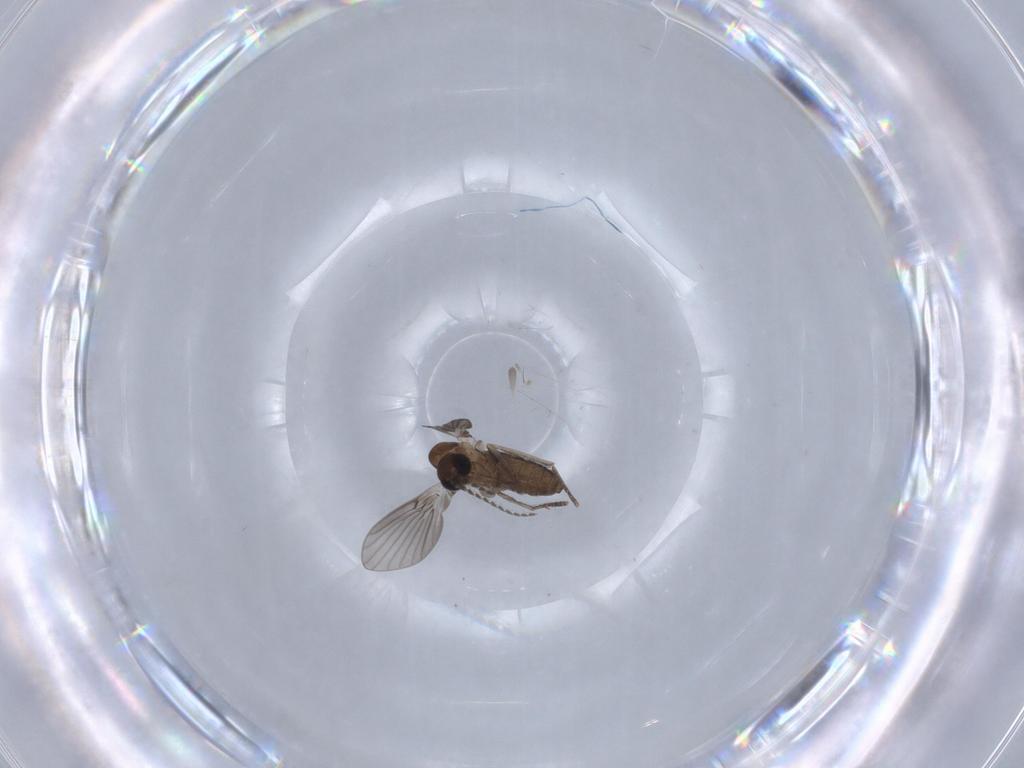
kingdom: Animalia
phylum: Arthropoda
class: Insecta
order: Diptera
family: Psychodidae
